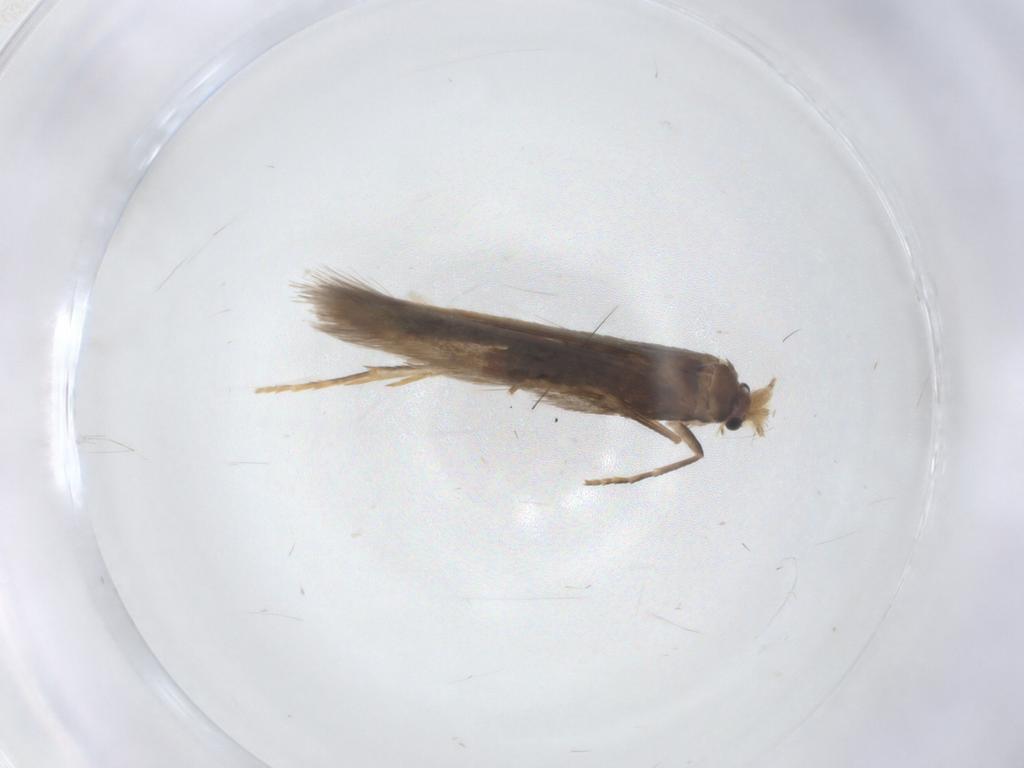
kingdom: Animalia
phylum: Arthropoda
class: Insecta
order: Lepidoptera
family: Nepticulidae
